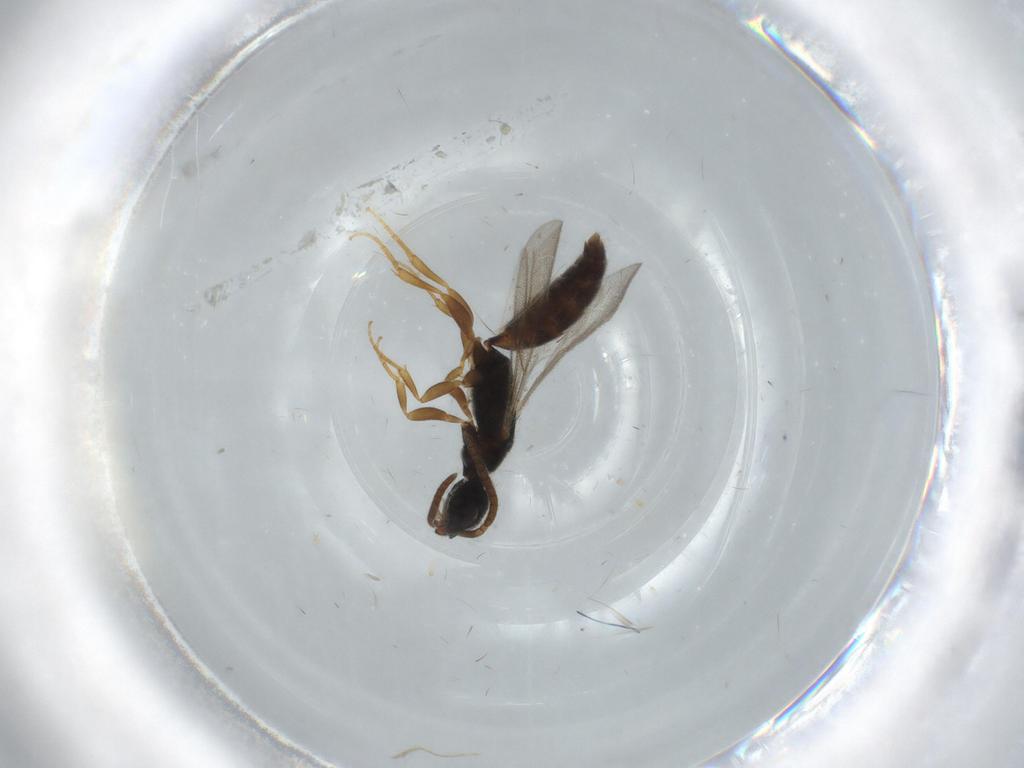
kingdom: Animalia
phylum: Arthropoda
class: Insecta
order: Hymenoptera
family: Bethylidae
